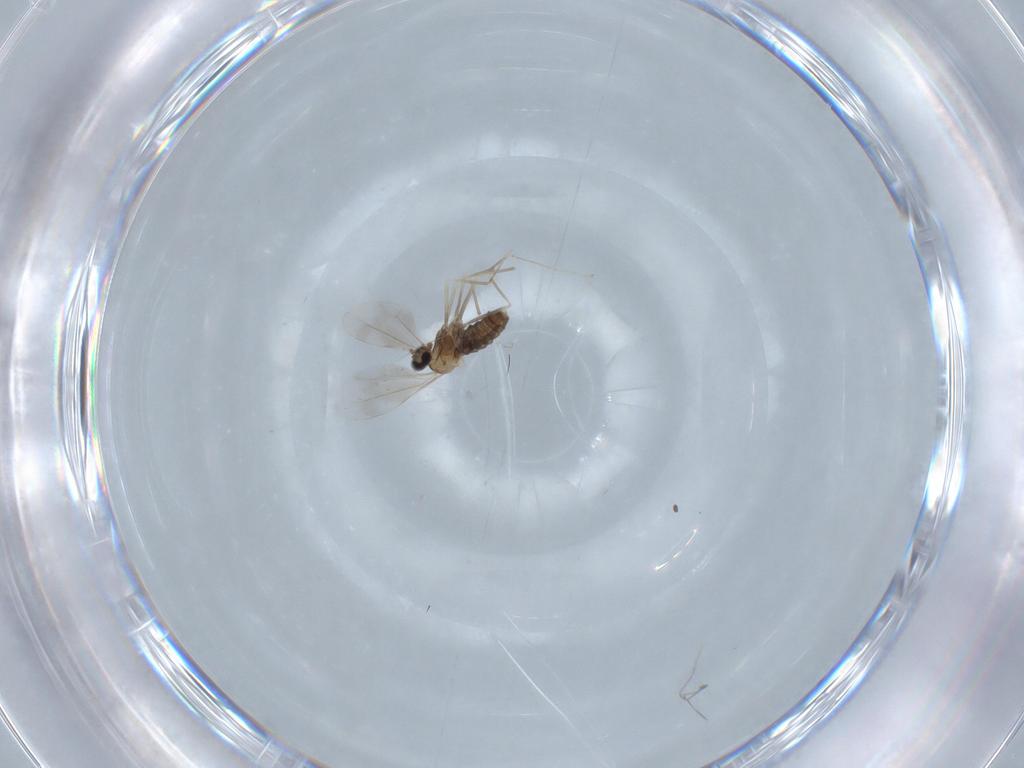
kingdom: Animalia
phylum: Arthropoda
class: Insecta
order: Diptera
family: Cecidomyiidae
